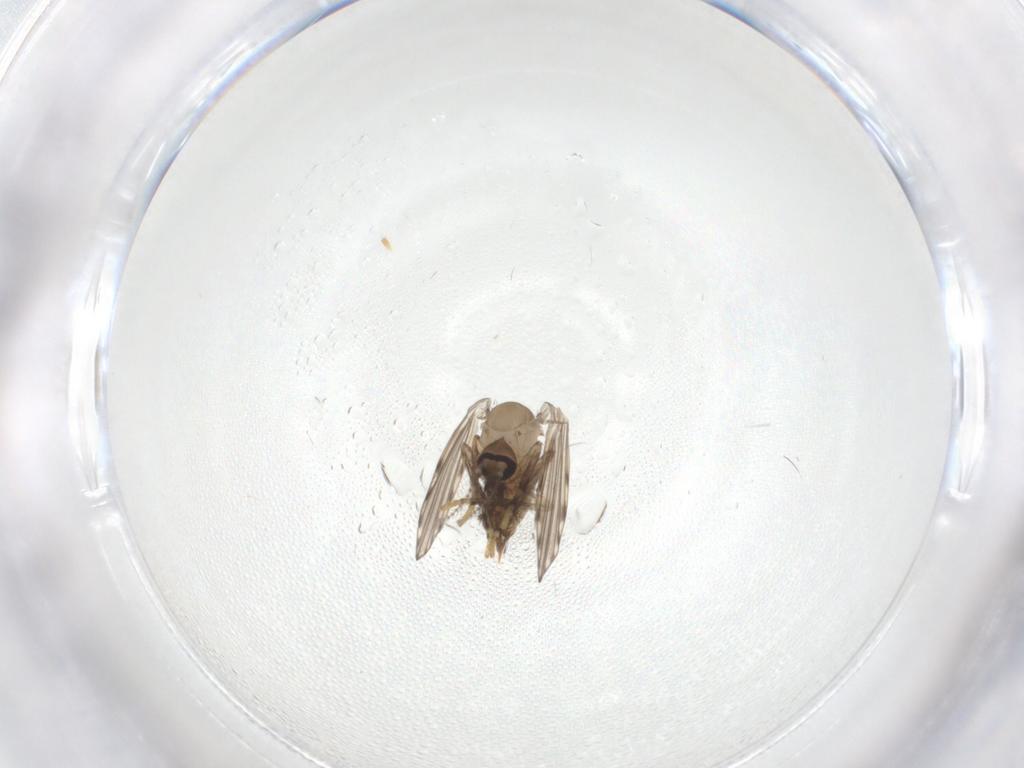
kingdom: Animalia
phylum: Arthropoda
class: Insecta
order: Diptera
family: Psychodidae
